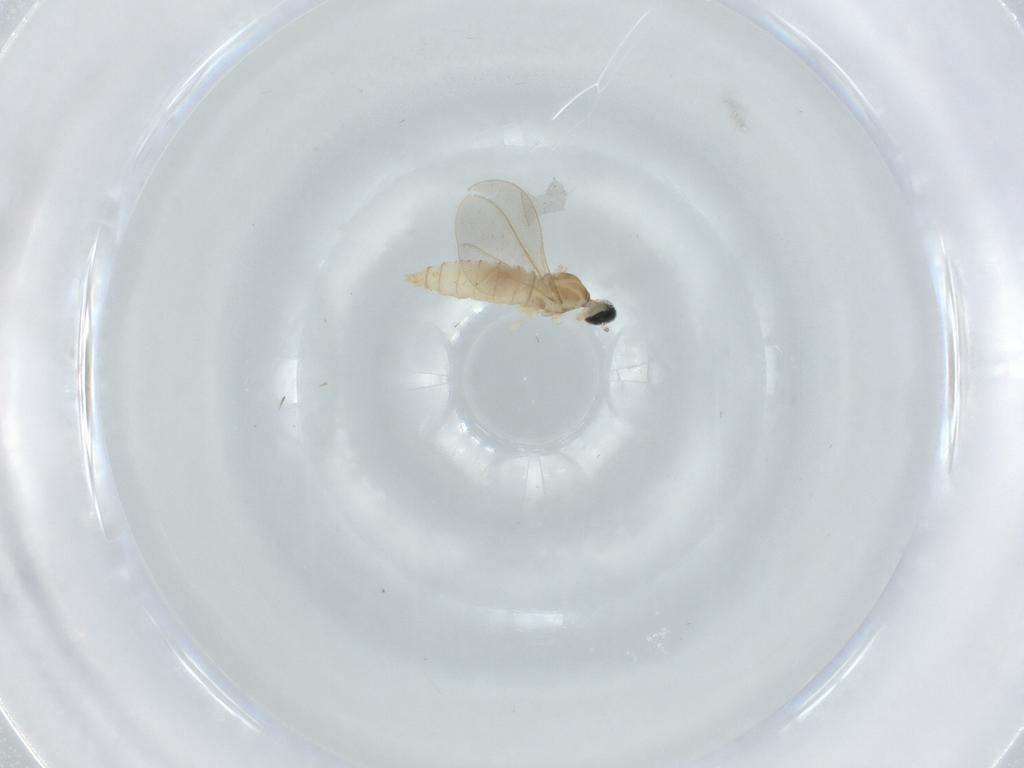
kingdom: Animalia
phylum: Arthropoda
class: Insecta
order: Diptera
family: Cecidomyiidae
